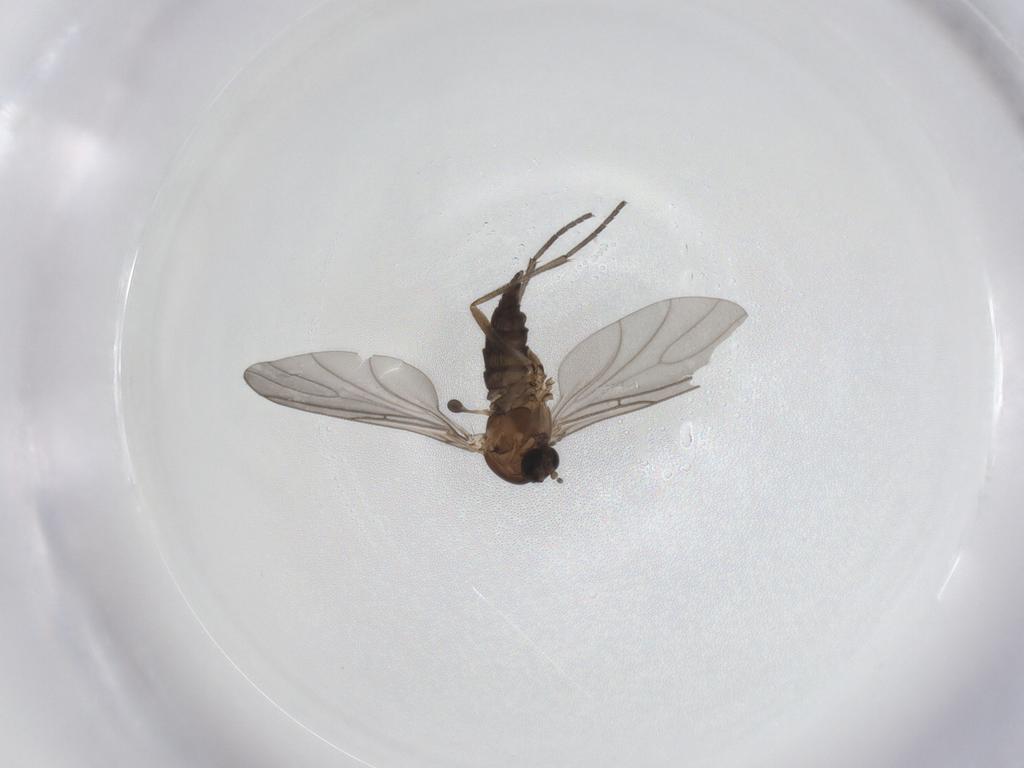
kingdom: Animalia
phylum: Arthropoda
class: Insecta
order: Diptera
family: Sciaridae
